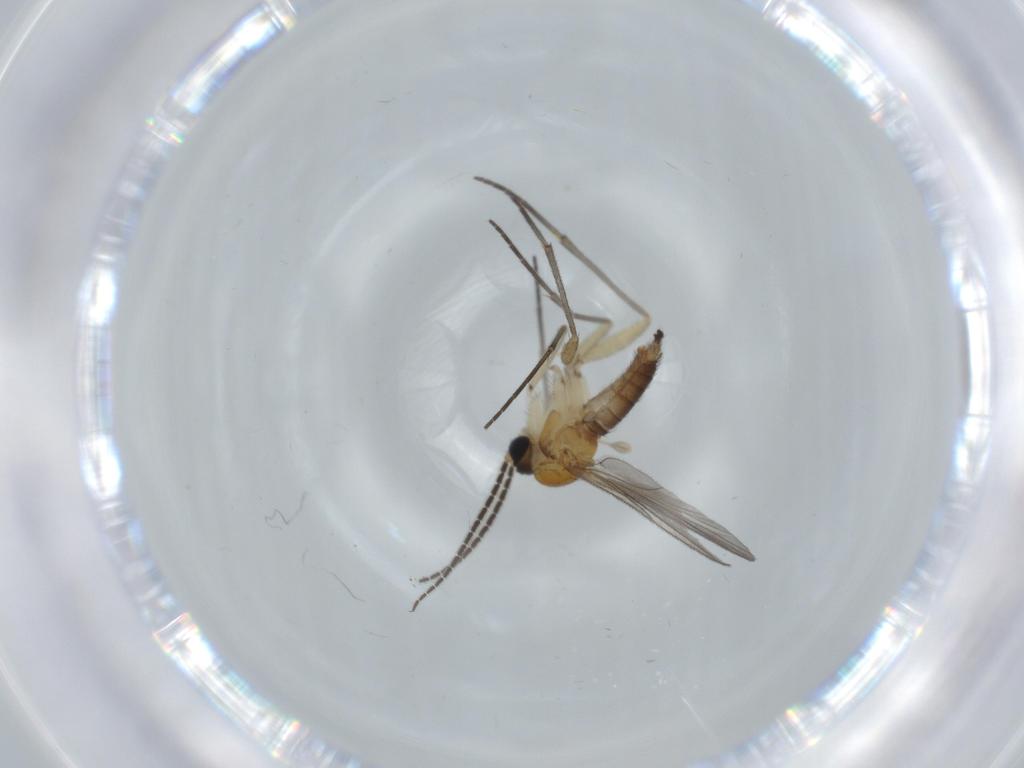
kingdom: Animalia
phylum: Arthropoda
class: Insecta
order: Diptera
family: Sciaridae
